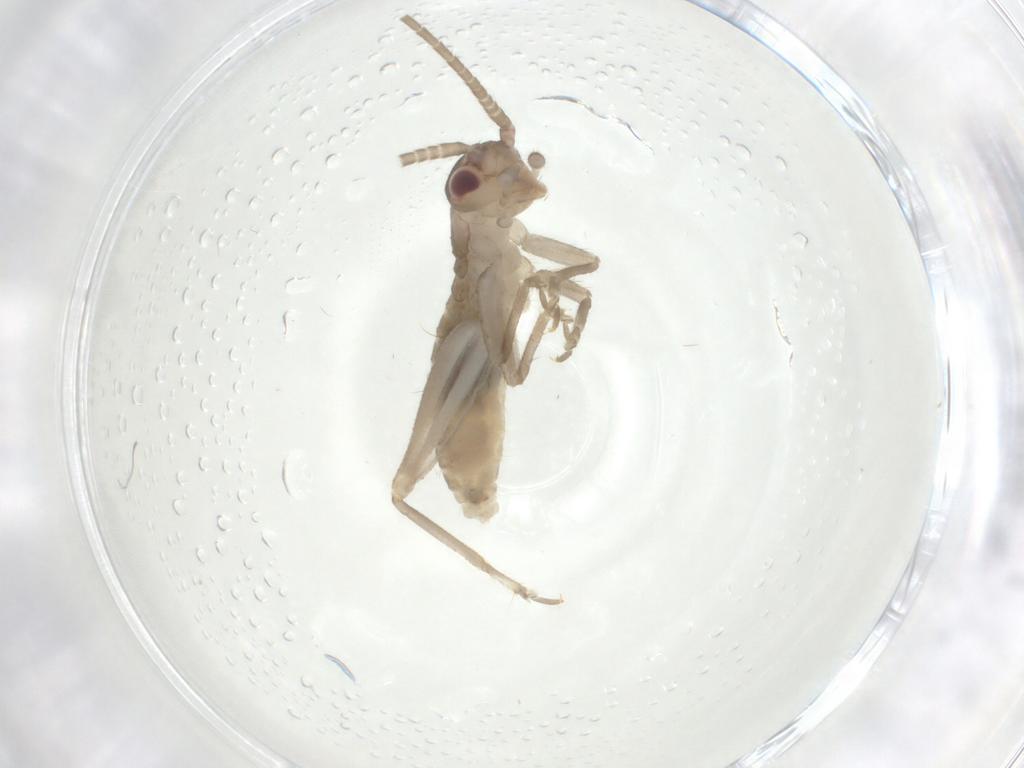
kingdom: Animalia
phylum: Arthropoda
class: Insecta
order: Orthoptera
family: Gryllidae
